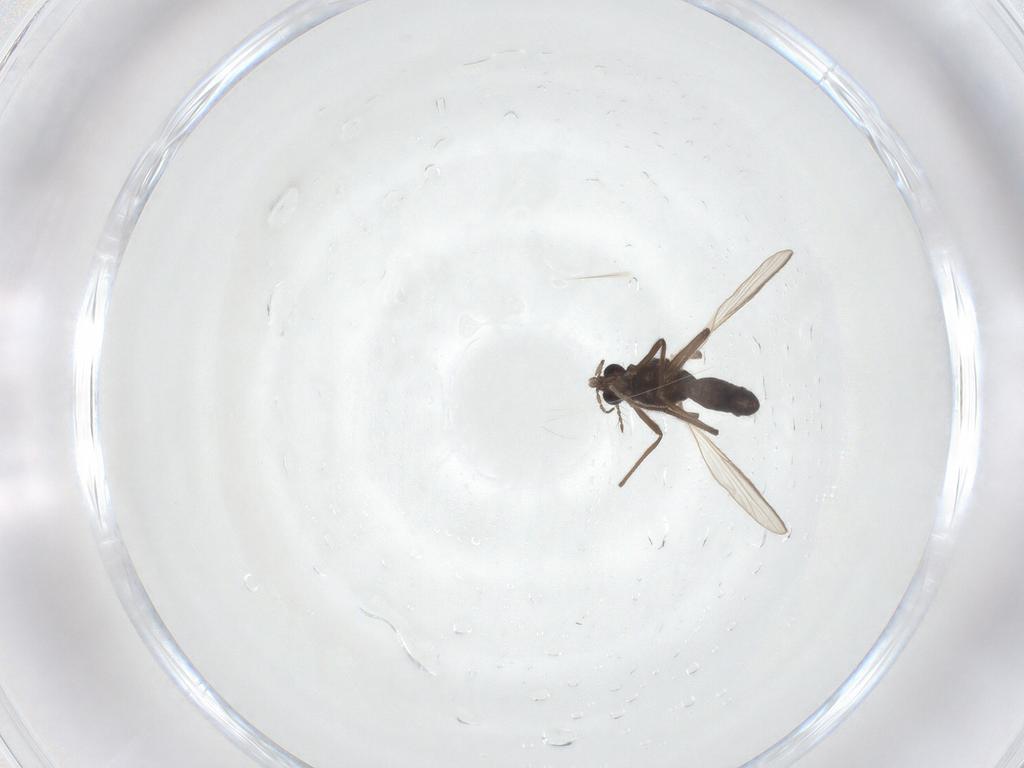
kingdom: Animalia
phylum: Arthropoda
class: Insecta
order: Diptera
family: Chironomidae
